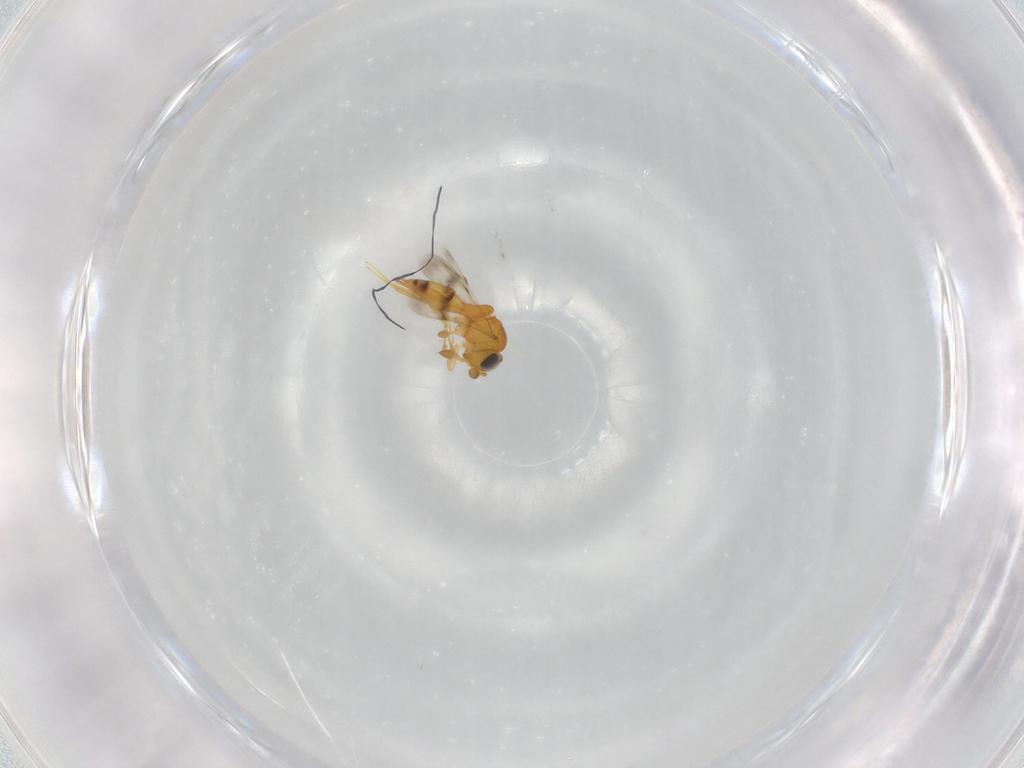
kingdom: Animalia
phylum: Arthropoda
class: Insecta
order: Hymenoptera
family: Scelionidae
